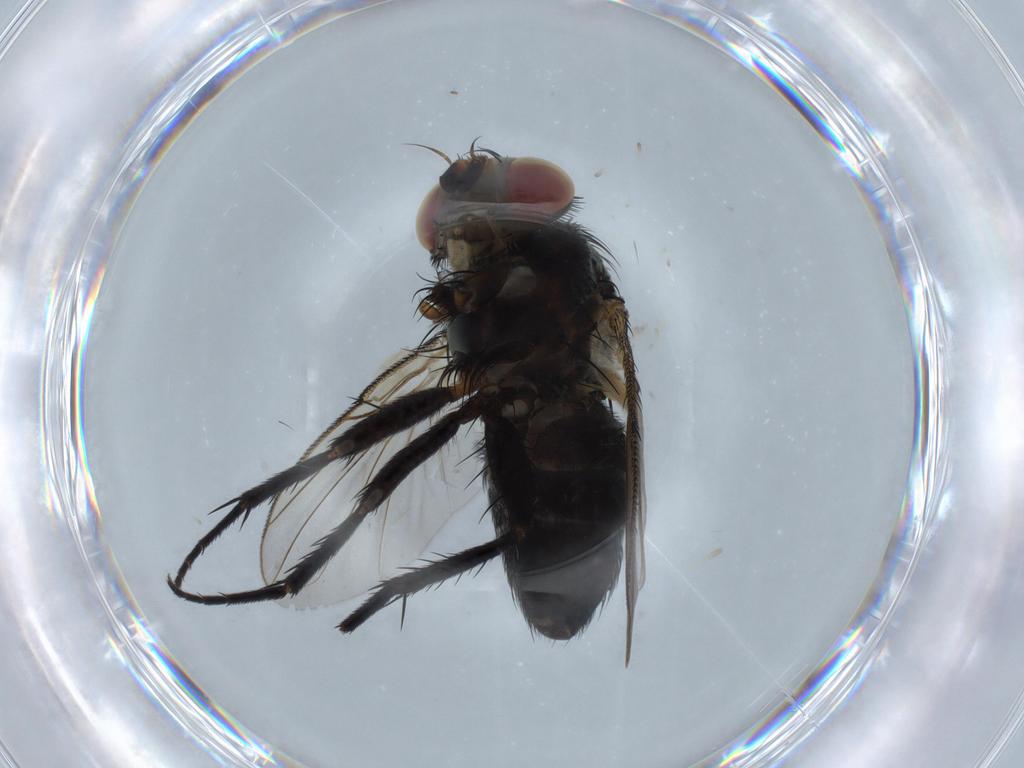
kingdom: Animalia
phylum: Arthropoda
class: Insecta
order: Diptera
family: Tachinidae
